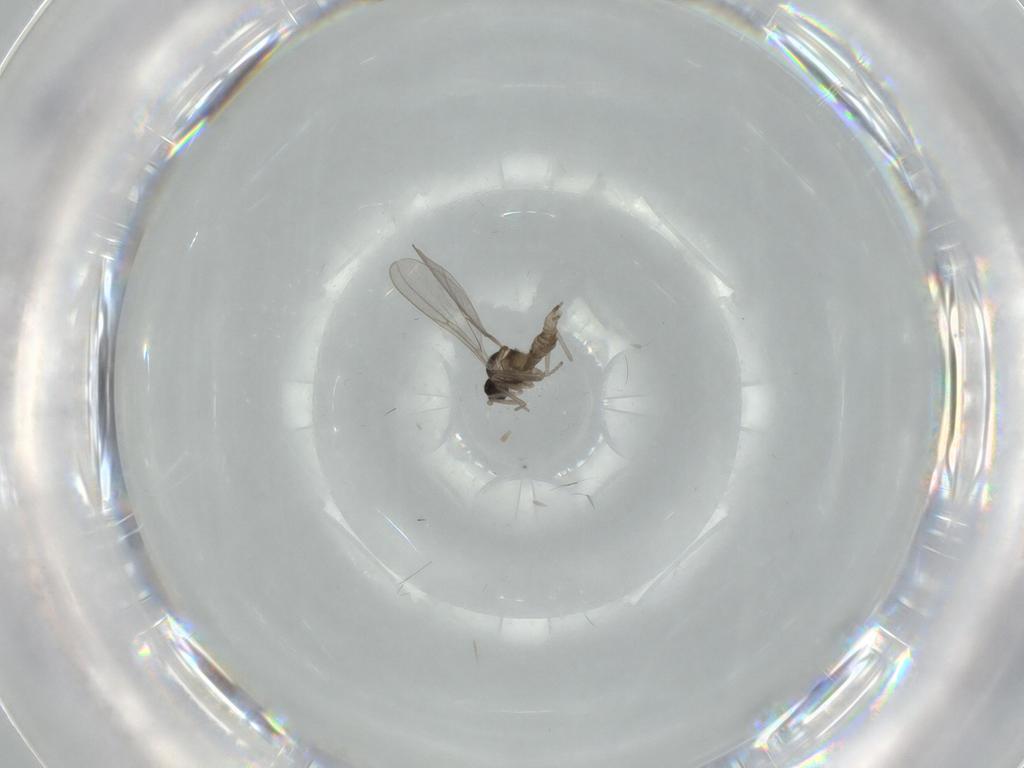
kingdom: Animalia
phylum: Arthropoda
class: Insecta
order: Diptera
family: Cecidomyiidae
